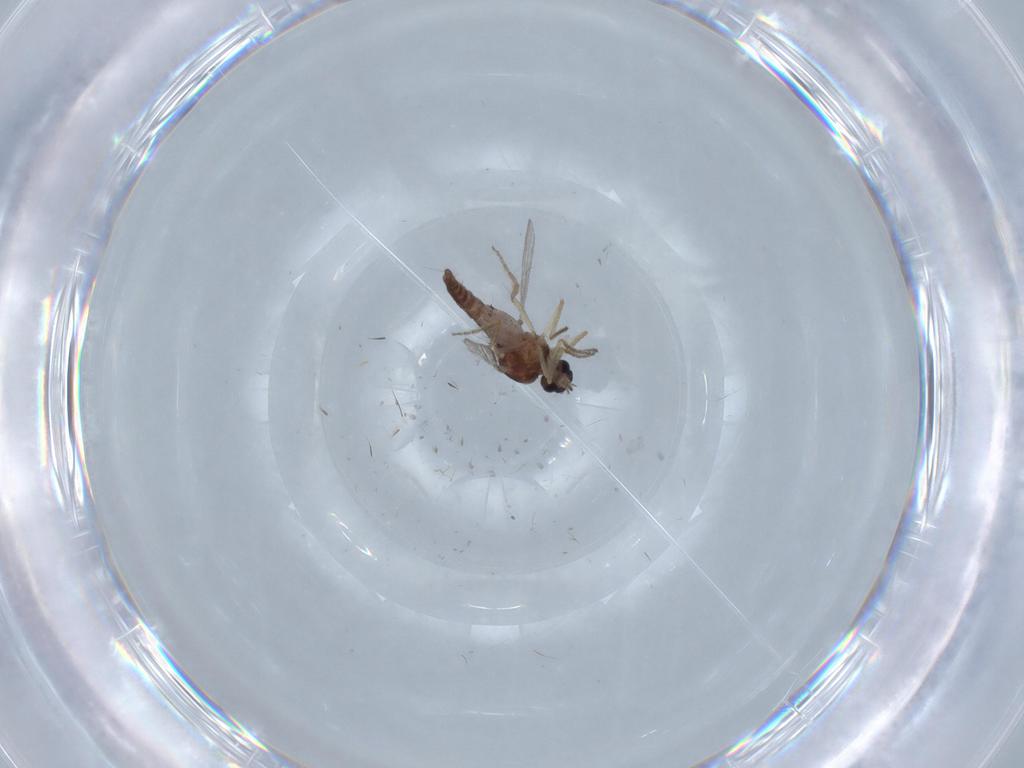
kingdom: Animalia
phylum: Arthropoda
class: Insecta
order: Diptera
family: Ceratopogonidae
